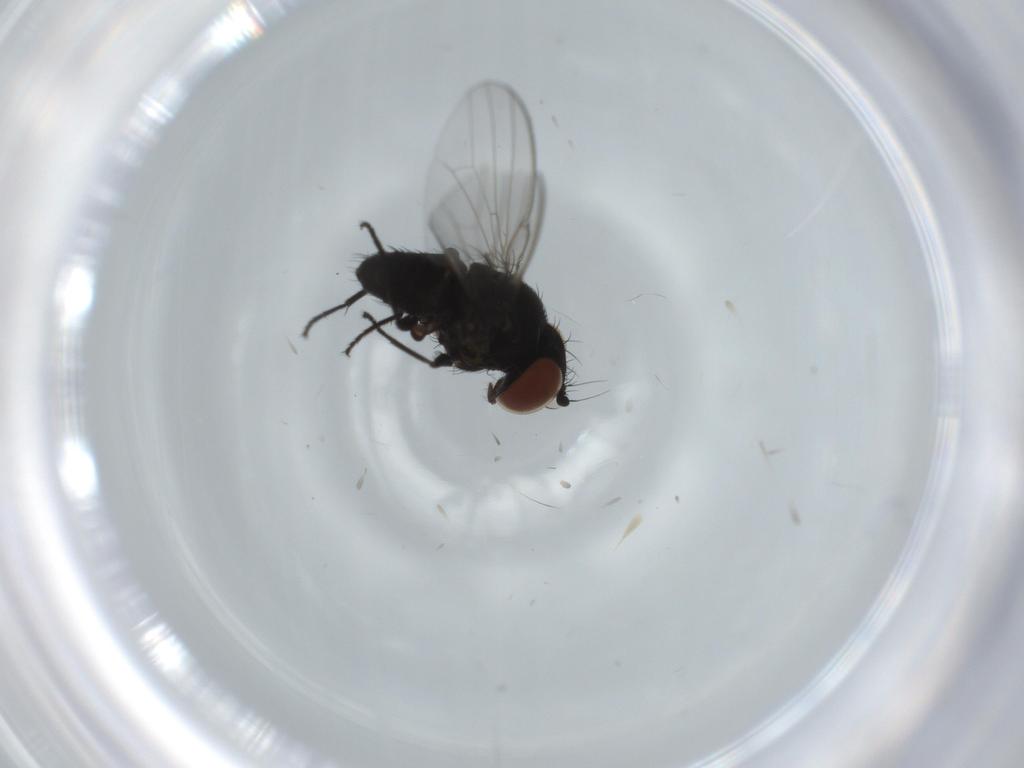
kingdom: Animalia
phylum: Arthropoda
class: Insecta
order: Diptera
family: Milichiidae
